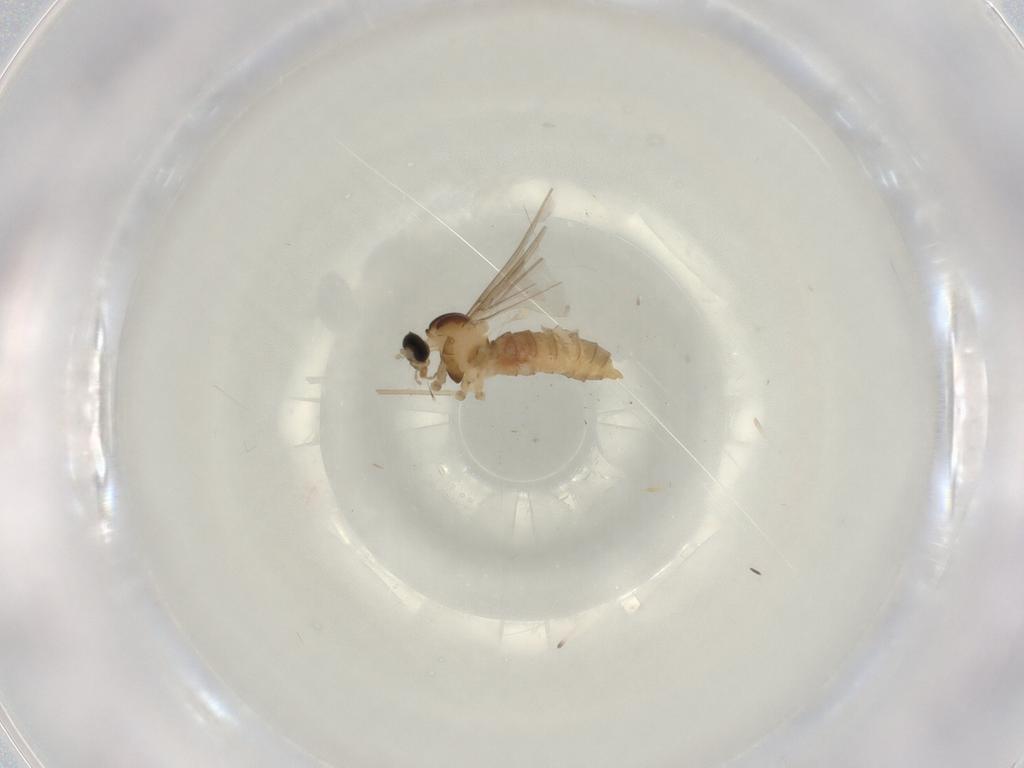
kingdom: Animalia
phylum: Arthropoda
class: Insecta
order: Diptera
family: Cecidomyiidae
